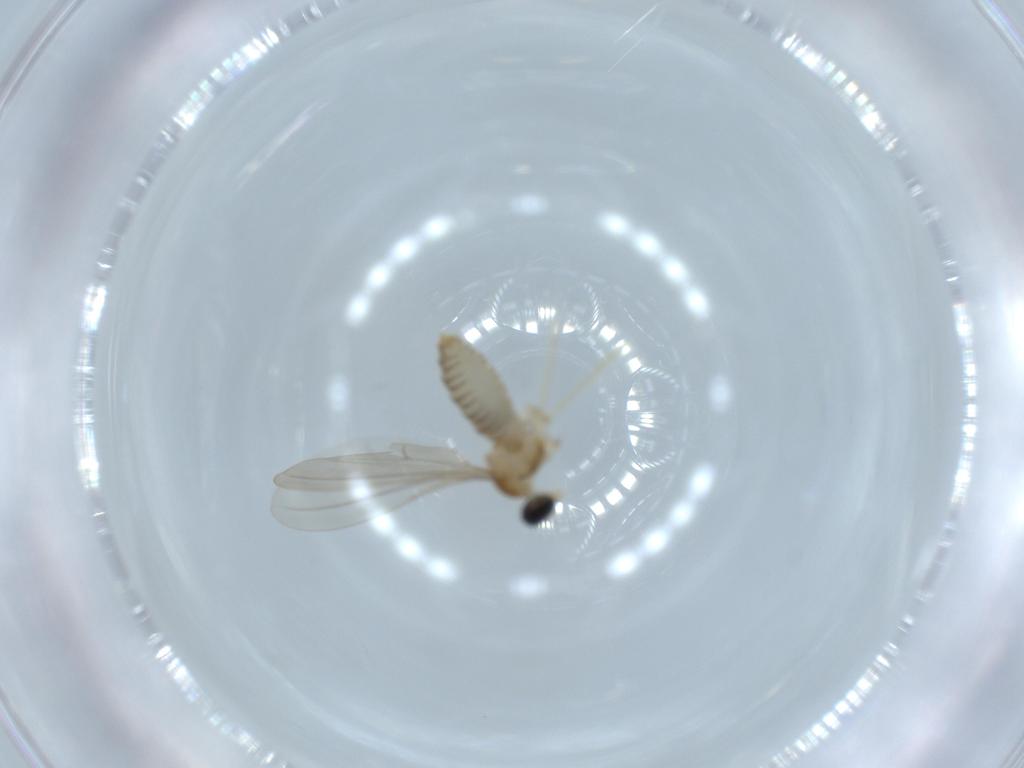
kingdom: Animalia
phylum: Arthropoda
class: Insecta
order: Diptera
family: Cecidomyiidae
